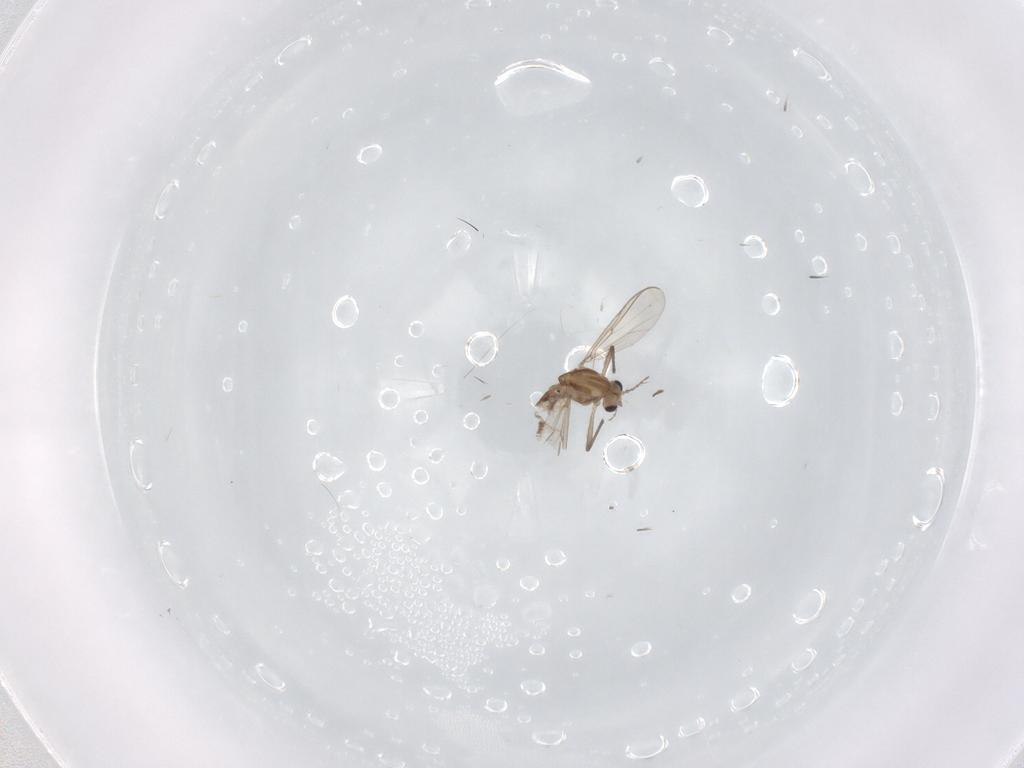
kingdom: Animalia
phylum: Arthropoda
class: Insecta
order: Diptera
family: Chironomidae
